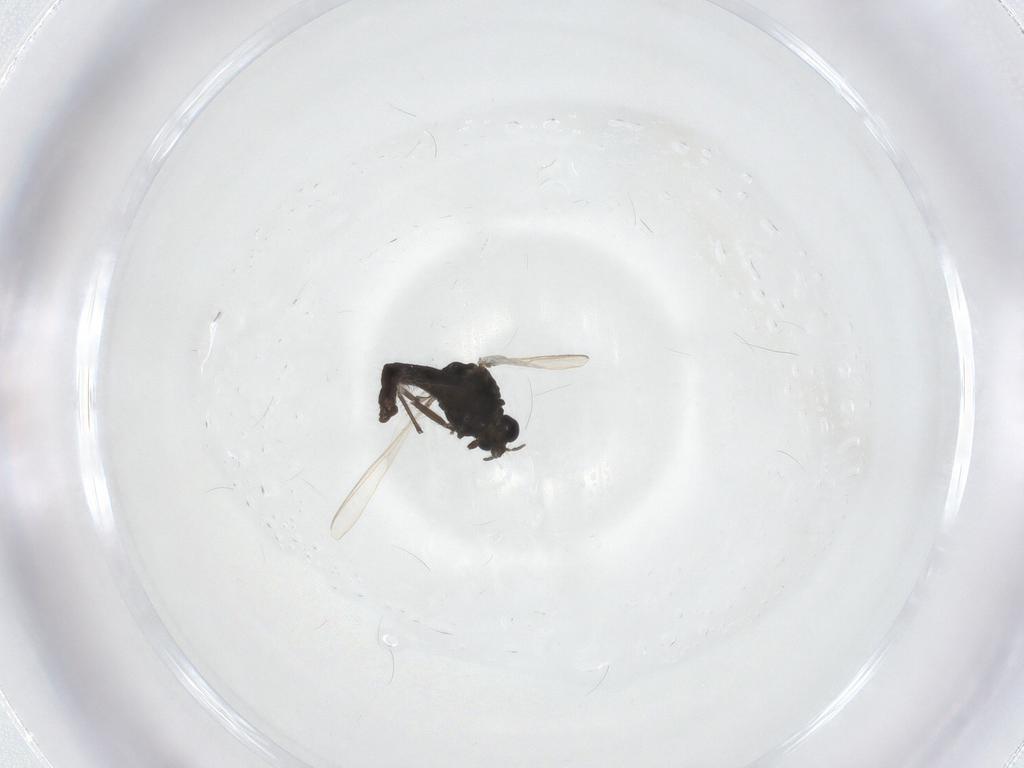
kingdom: Animalia
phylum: Arthropoda
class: Insecta
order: Diptera
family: Chironomidae
